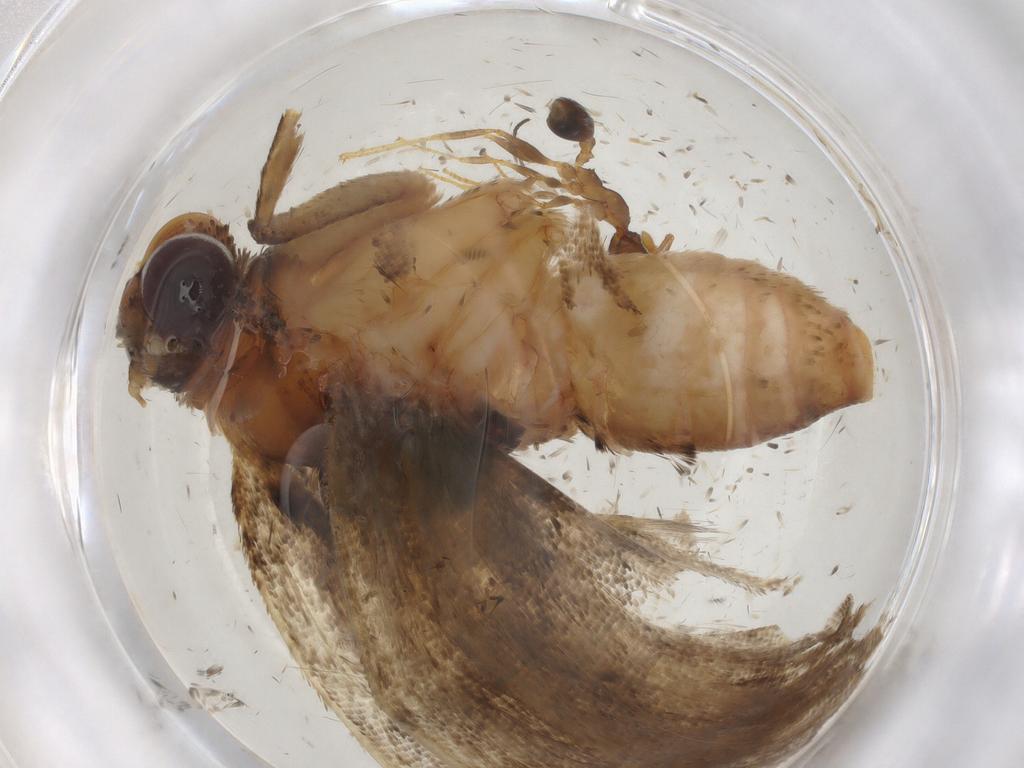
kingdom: Animalia
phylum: Arthropoda
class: Insecta
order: Lepidoptera
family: Erebidae
